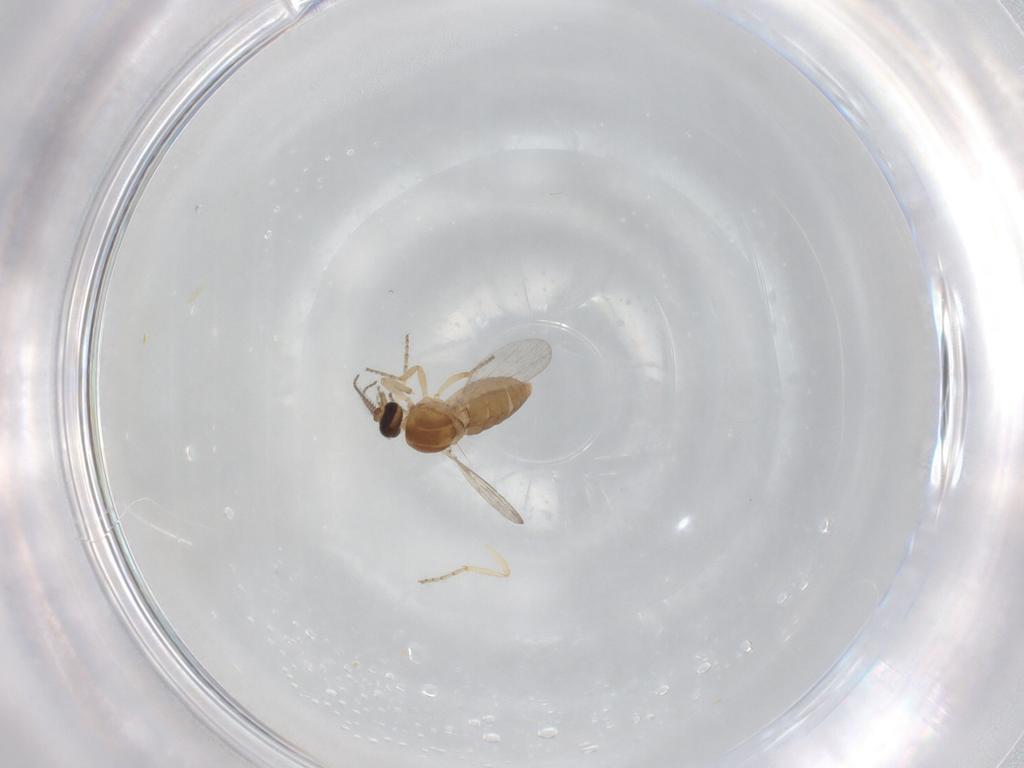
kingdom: Animalia
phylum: Arthropoda
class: Insecta
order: Diptera
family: Ceratopogonidae
